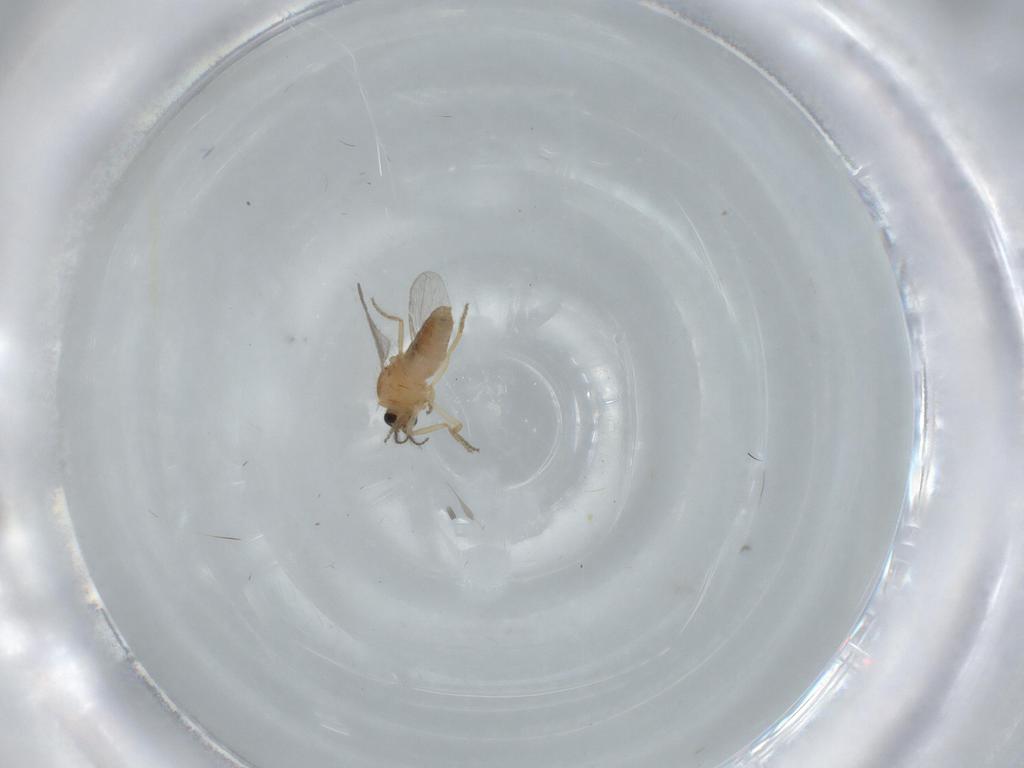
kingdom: Animalia
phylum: Arthropoda
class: Insecta
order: Diptera
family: Ceratopogonidae
